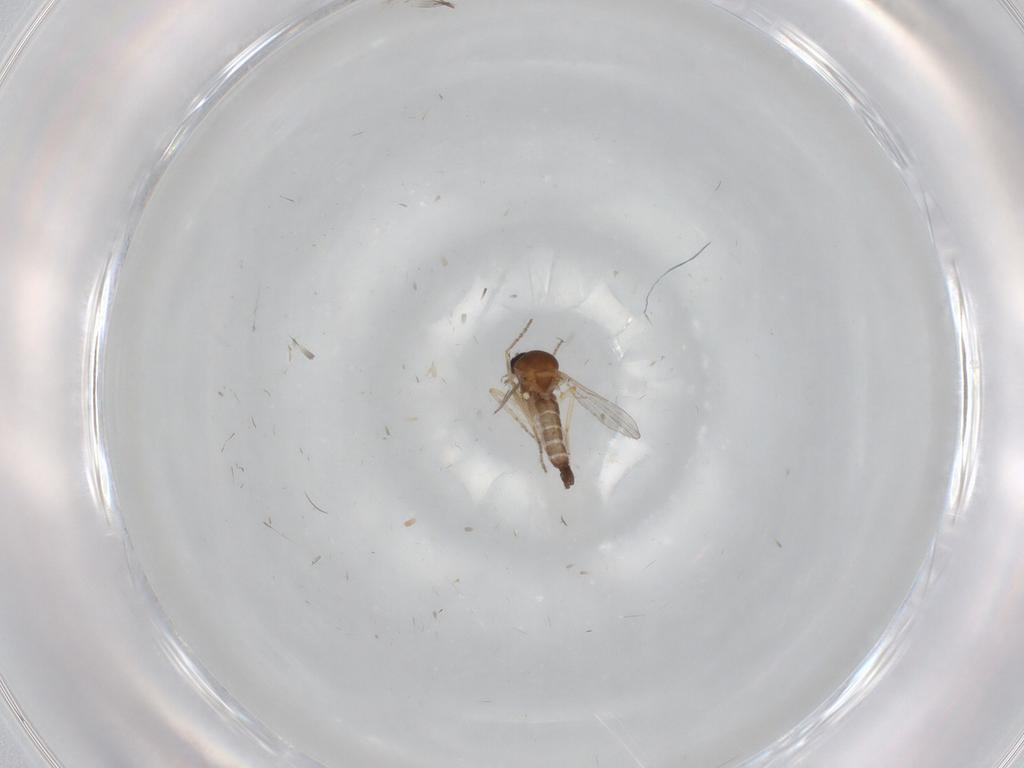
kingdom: Animalia
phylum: Arthropoda
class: Insecta
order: Diptera
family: Ceratopogonidae
